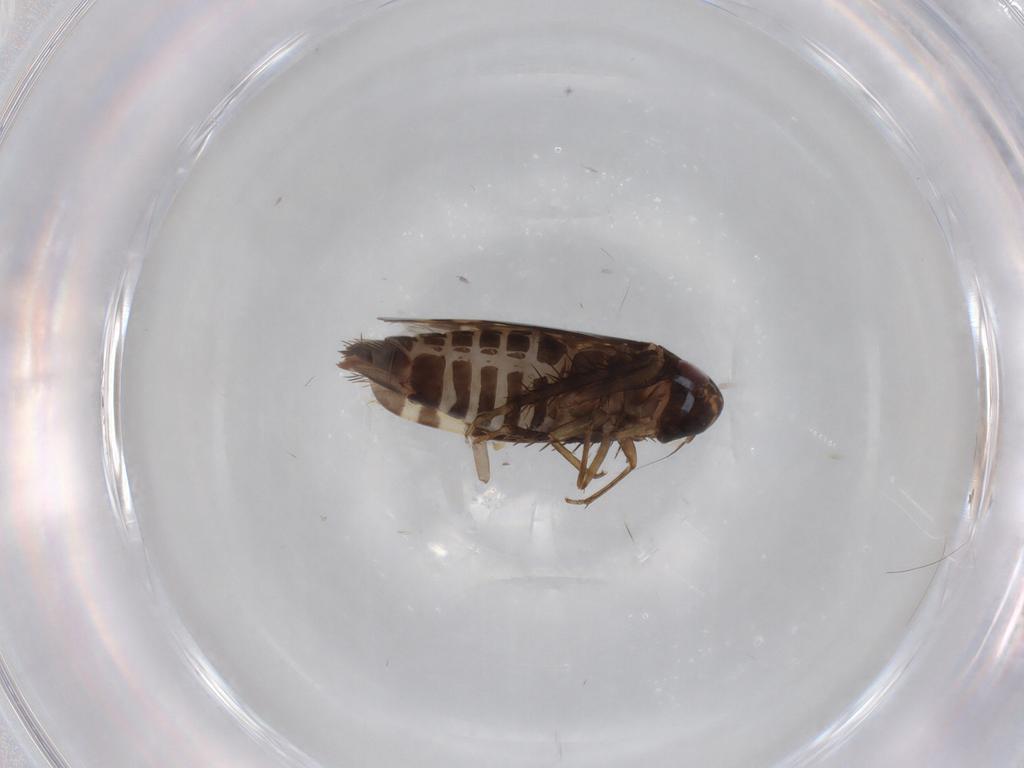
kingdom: Animalia
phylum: Arthropoda
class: Insecta
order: Hemiptera
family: Cicadellidae
